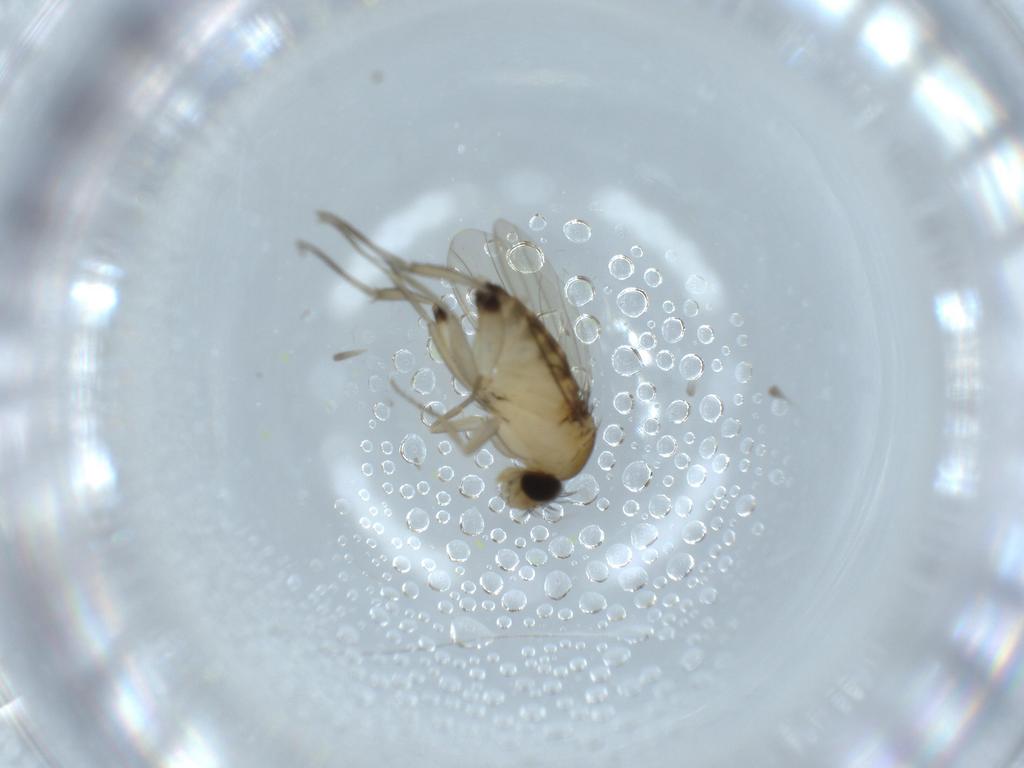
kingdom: Animalia
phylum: Arthropoda
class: Insecta
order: Diptera
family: Phoridae
